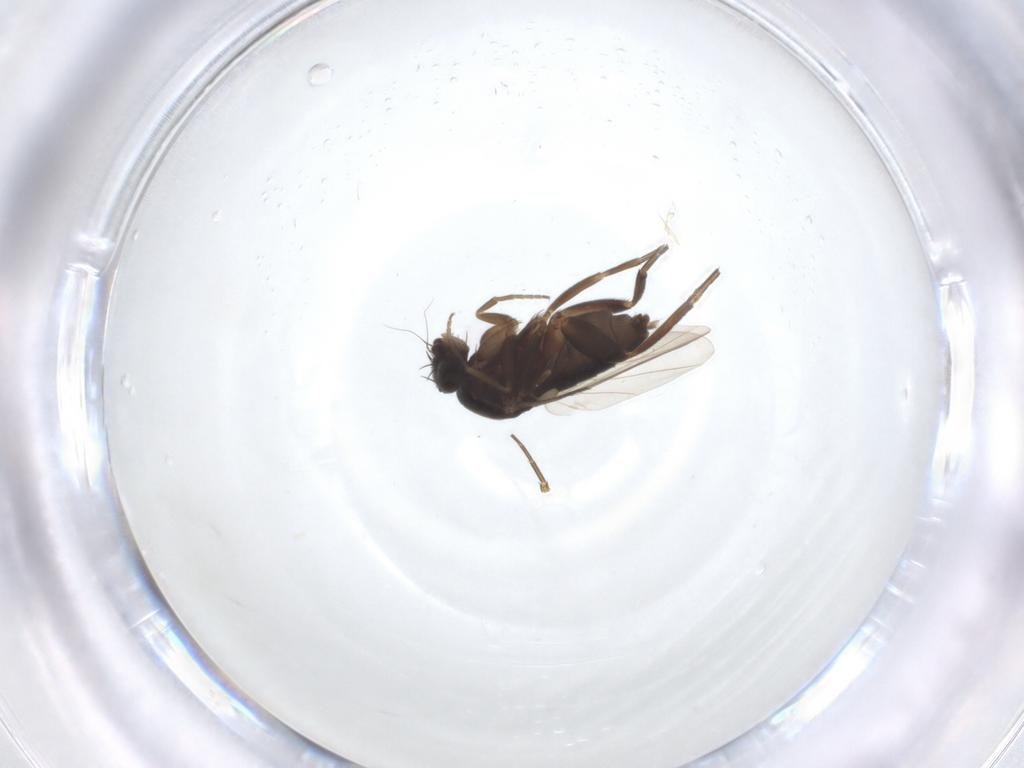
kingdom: Animalia
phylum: Arthropoda
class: Insecta
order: Diptera
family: Phoridae
